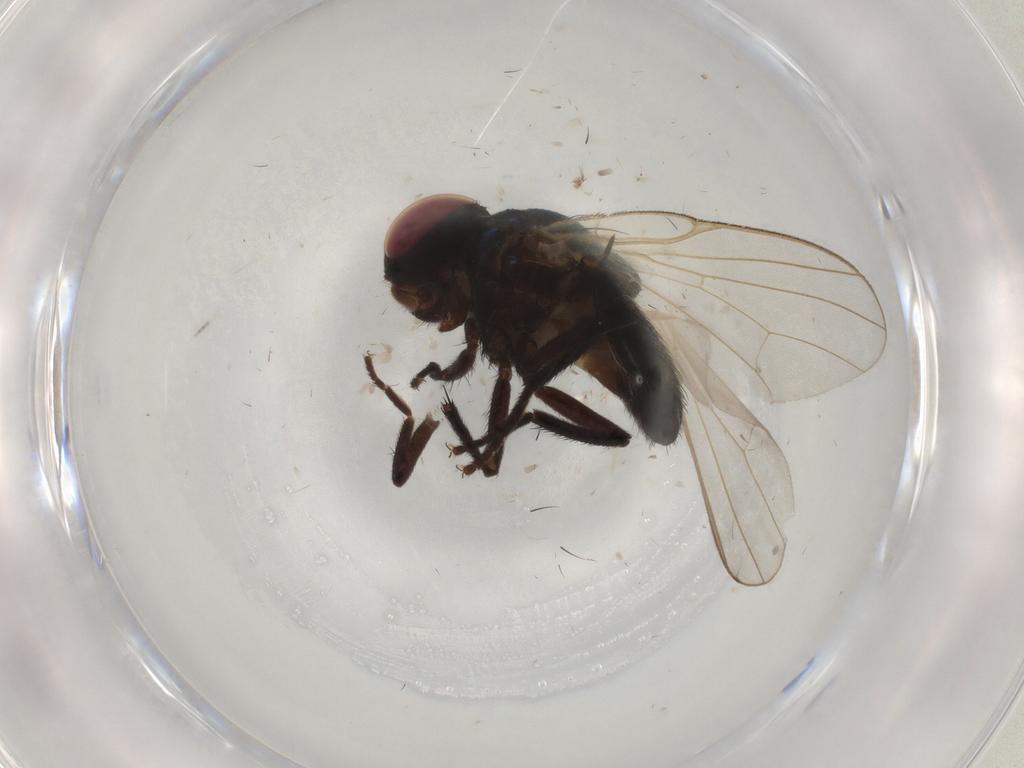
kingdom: Animalia
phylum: Arthropoda
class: Insecta
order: Diptera
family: Lonchaeidae
